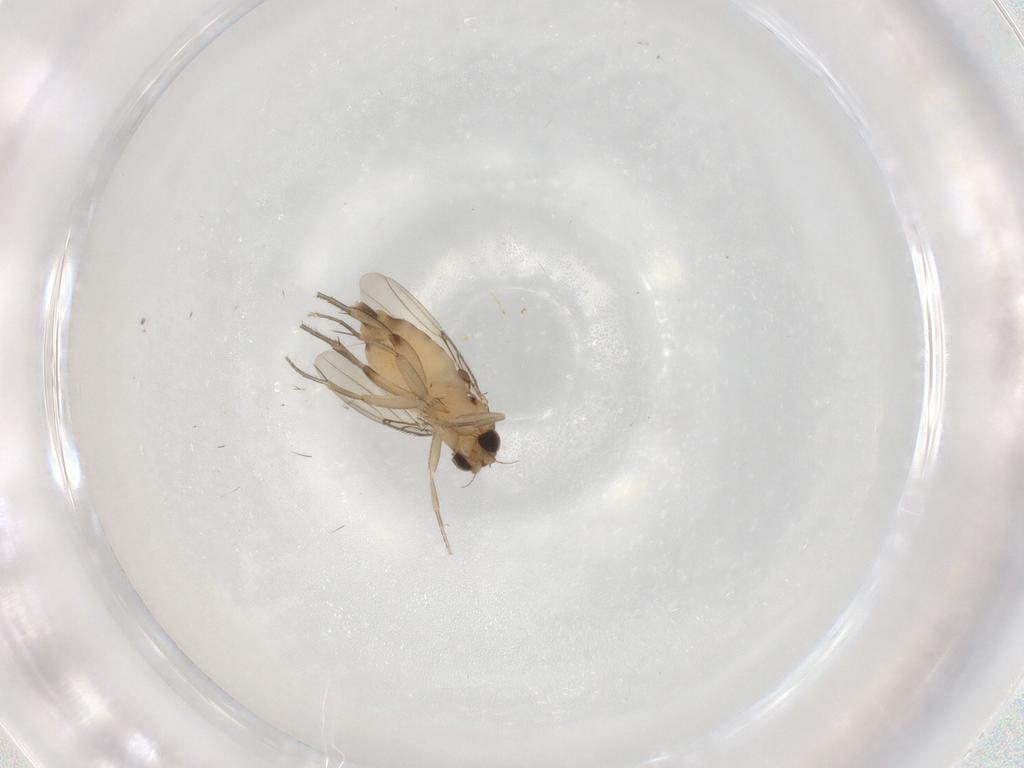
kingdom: Animalia
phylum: Arthropoda
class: Insecta
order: Diptera
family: Phoridae
